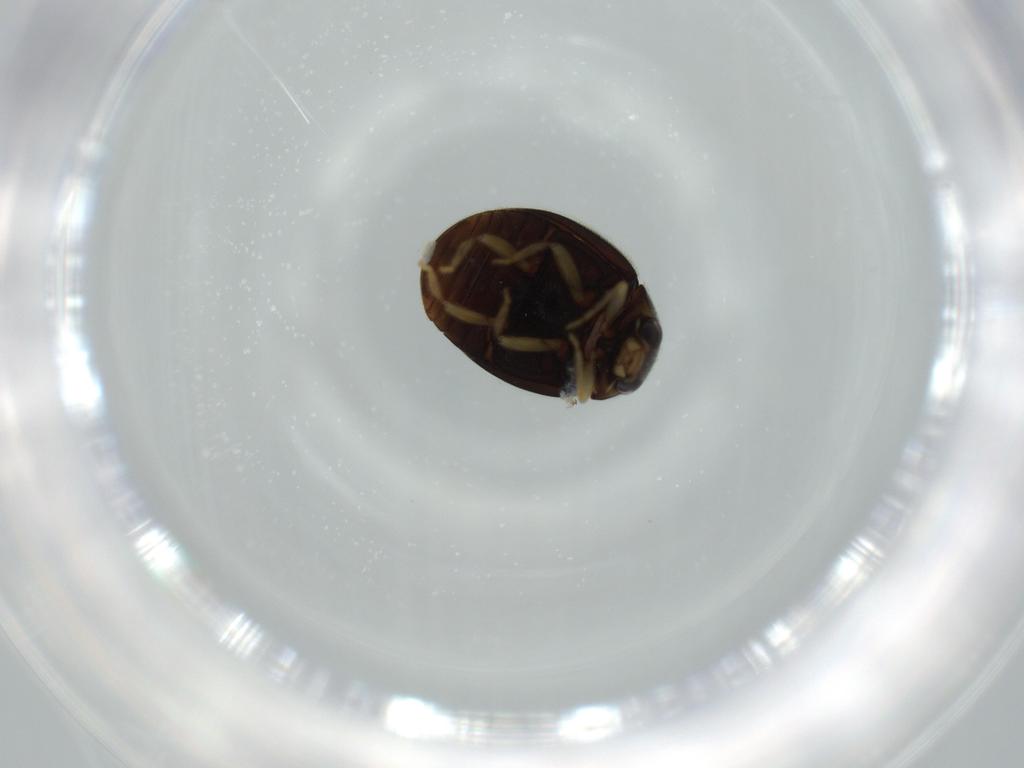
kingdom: Animalia
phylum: Arthropoda
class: Insecta
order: Coleoptera
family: Coccinellidae
